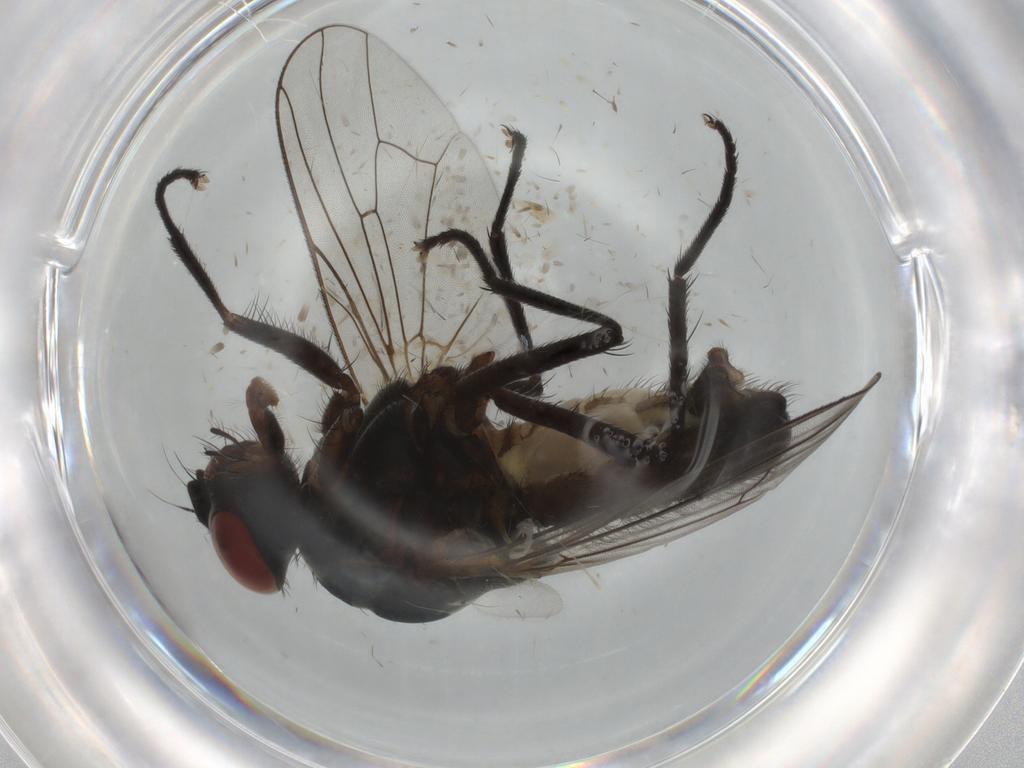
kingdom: Animalia
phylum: Arthropoda
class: Insecta
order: Diptera
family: Anthomyiidae
